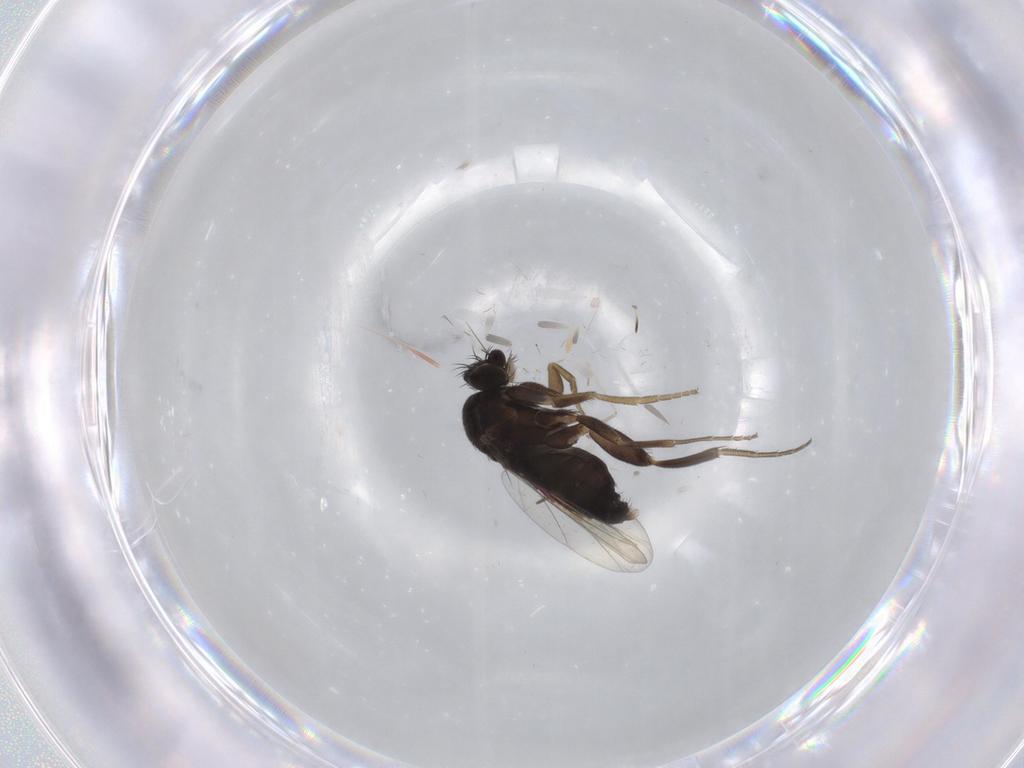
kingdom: Animalia
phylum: Arthropoda
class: Insecta
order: Diptera
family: Phoridae
